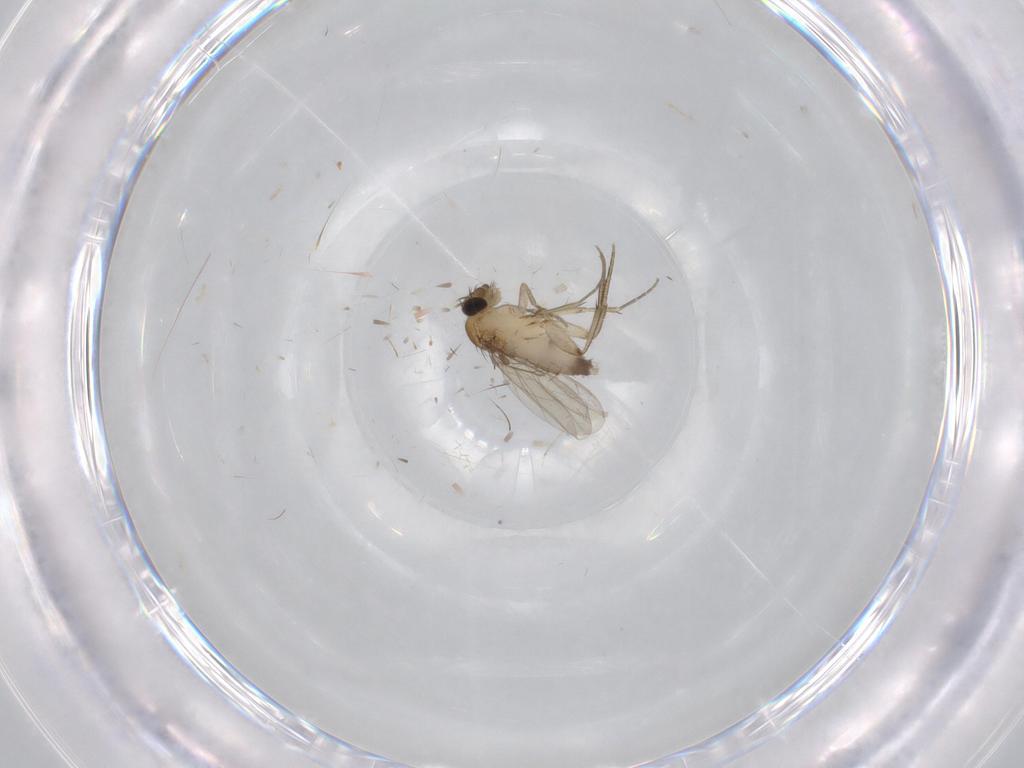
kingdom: Animalia
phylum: Arthropoda
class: Insecta
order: Diptera
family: Phoridae
